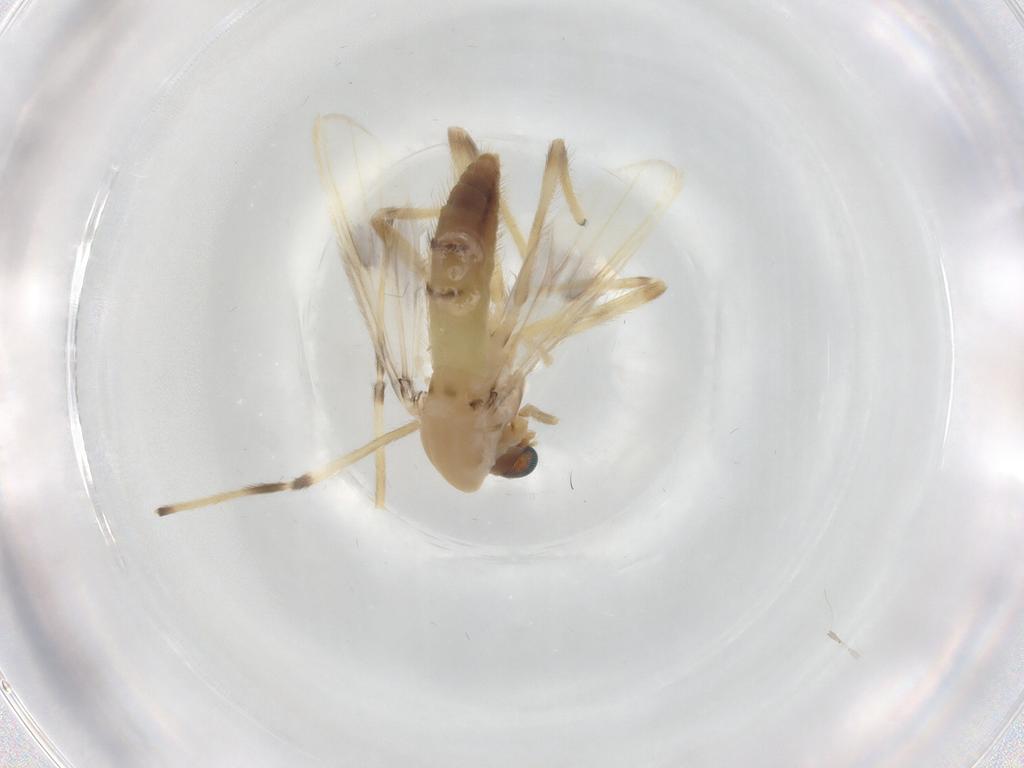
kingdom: Animalia
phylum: Arthropoda
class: Insecta
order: Diptera
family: Chironomidae
